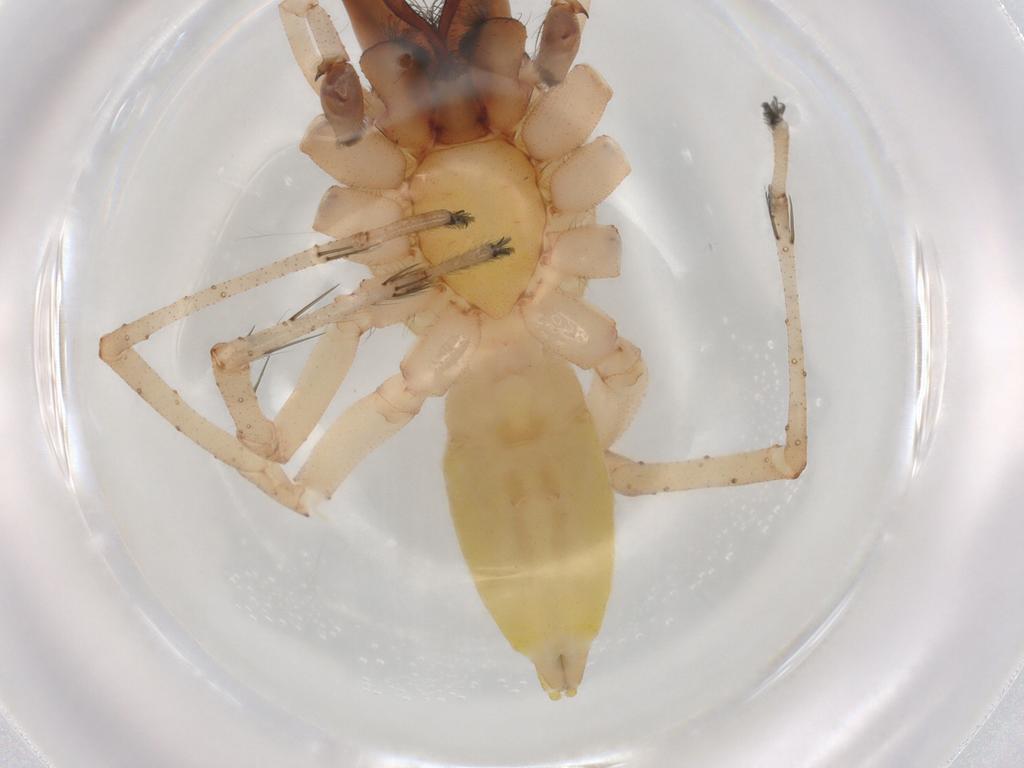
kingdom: Animalia
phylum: Arthropoda
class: Arachnida
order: Araneae
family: Anyphaenidae
